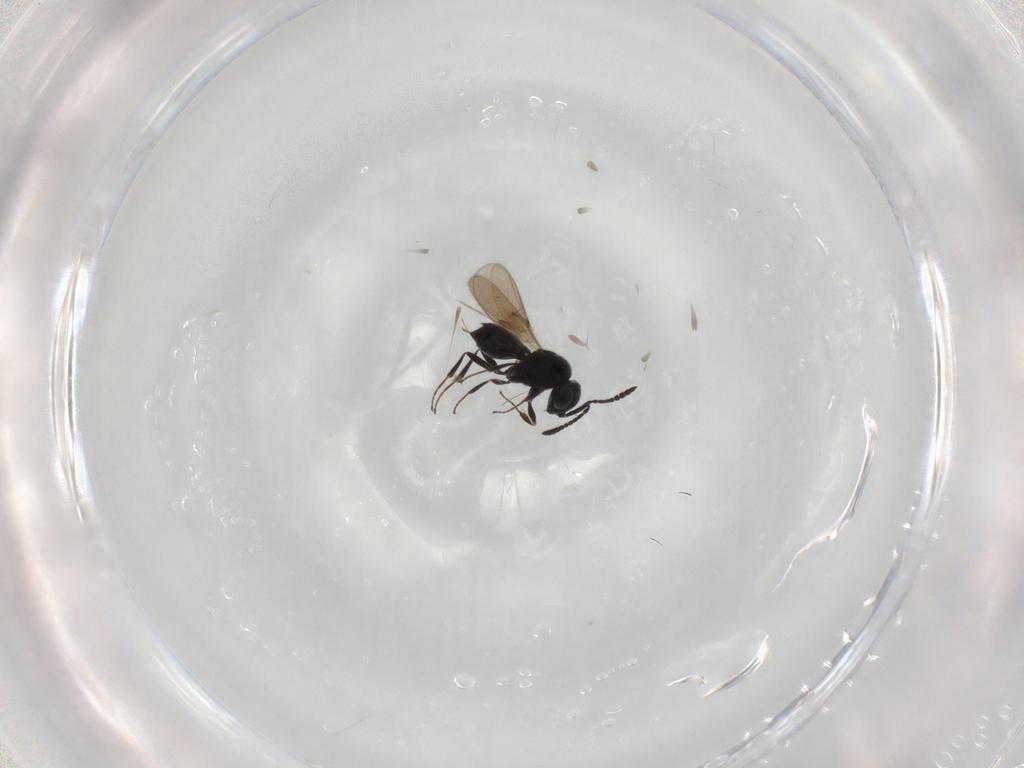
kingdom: Animalia
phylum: Arthropoda
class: Insecta
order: Hymenoptera
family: Scelionidae
